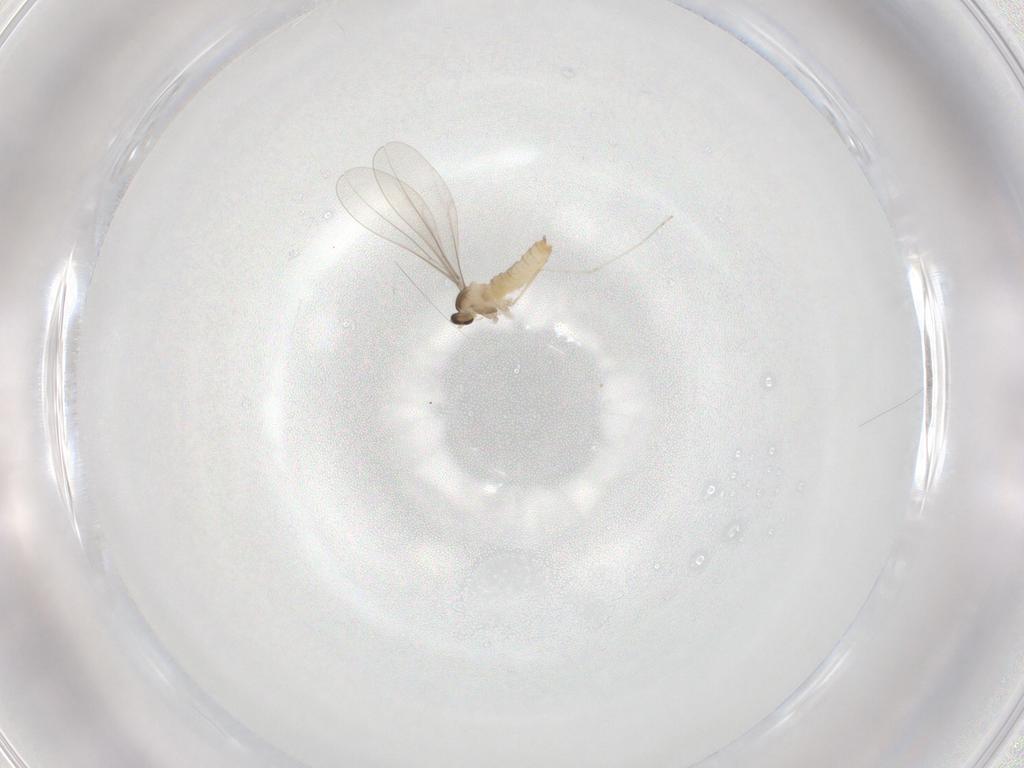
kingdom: Animalia
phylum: Arthropoda
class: Insecta
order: Diptera
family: Cecidomyiidae
